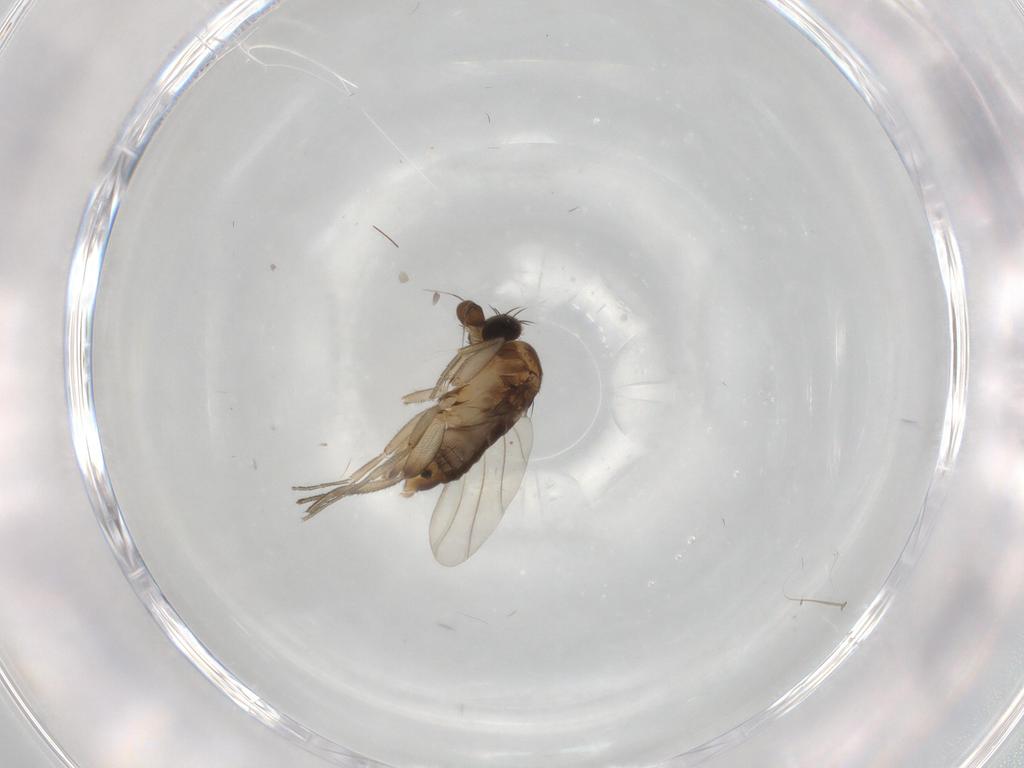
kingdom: Animalia
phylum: Arthropoda
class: Insecta
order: Diptera
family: Phoridae
